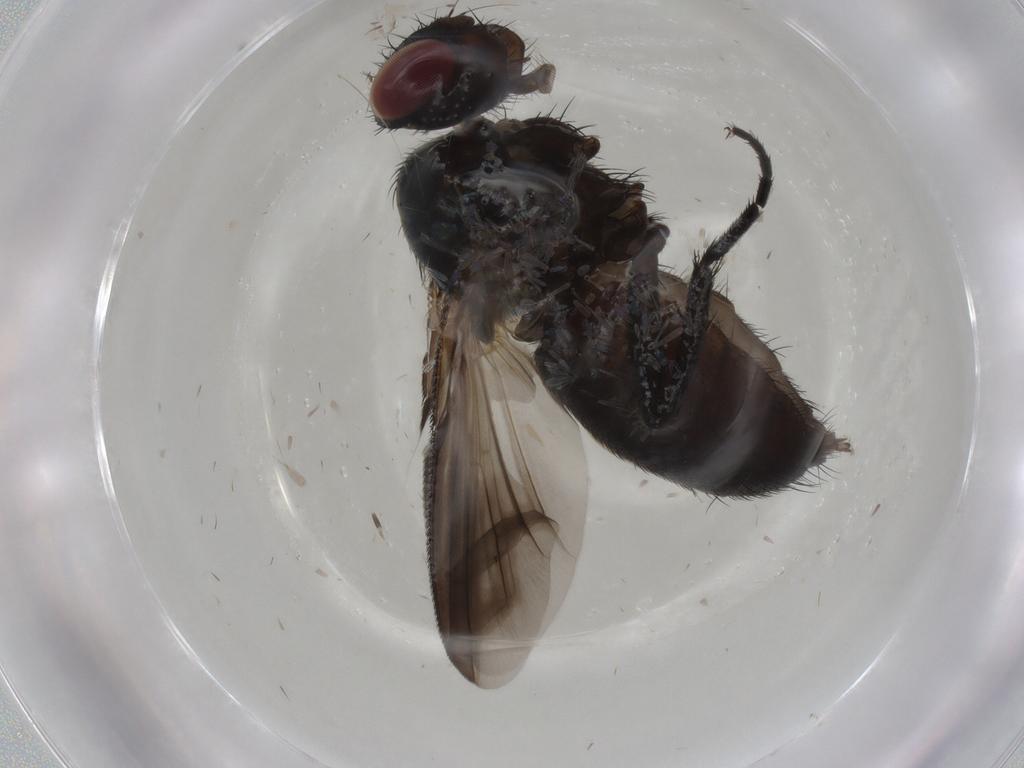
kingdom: Animalia
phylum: Arthropoda
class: Insecta
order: Diptera
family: Tachinidae
